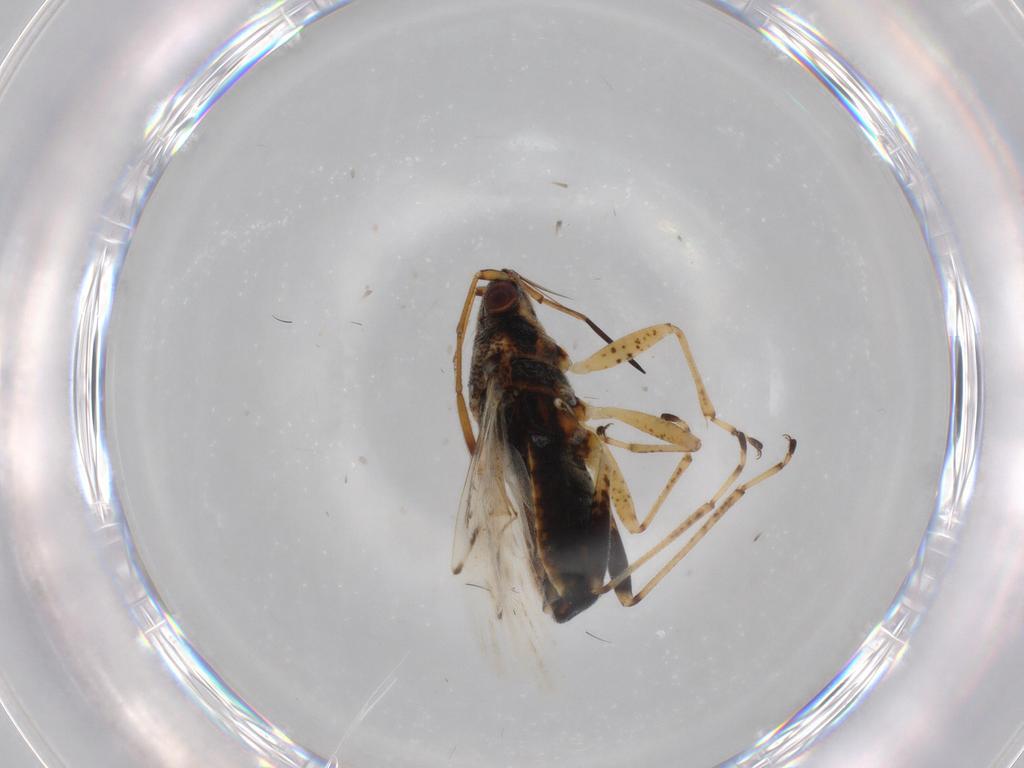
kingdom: Animalia
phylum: Arthropoda
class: Insecta
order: Hemiptera
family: Lygaeidae
